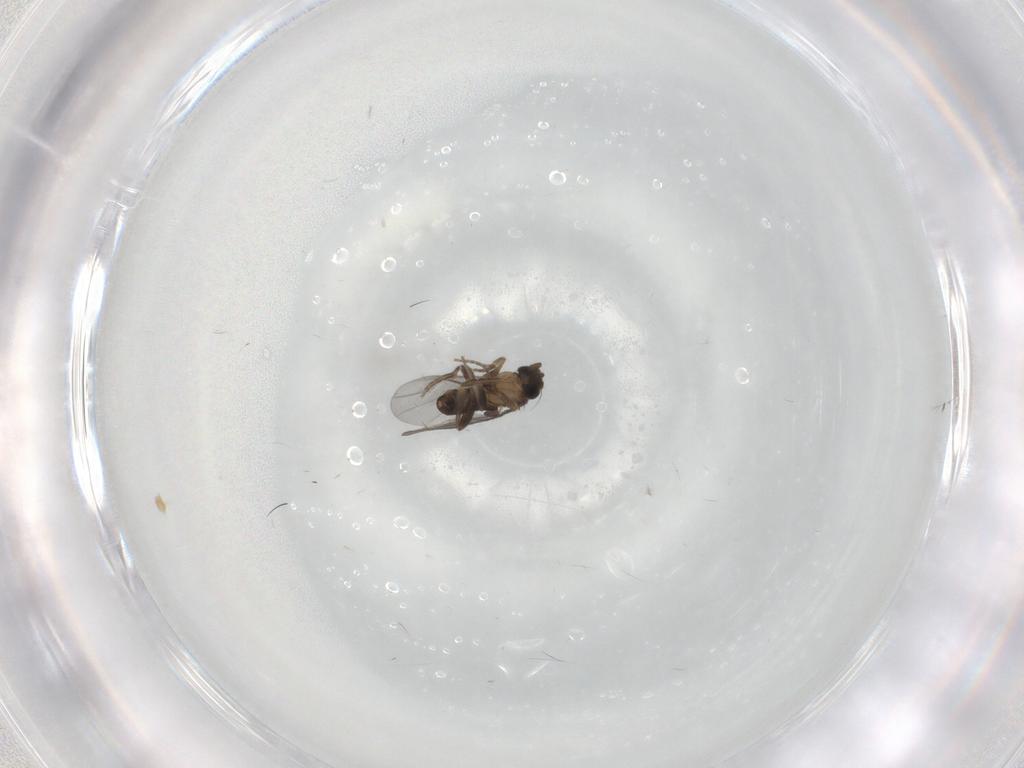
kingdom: Animalia
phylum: Arthropoda
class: Insecta
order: Diptera
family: Cecidomyiidae
